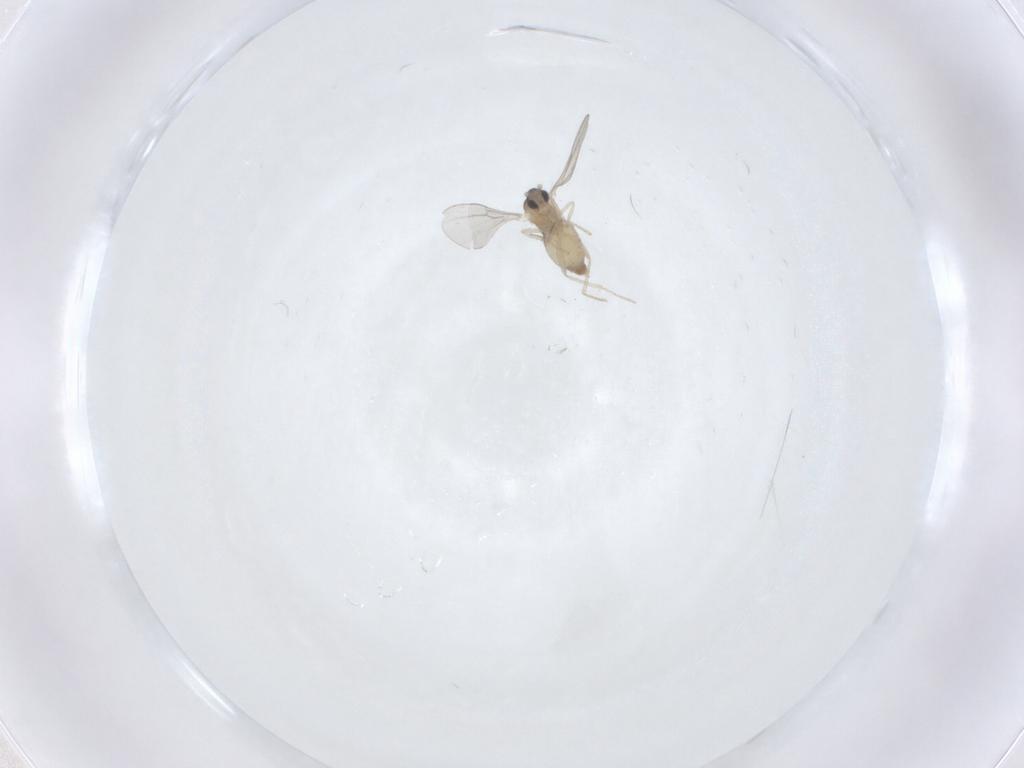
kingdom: Animalia
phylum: Arthropoda
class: Insecta
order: Diptera
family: Cecidomyiidae
